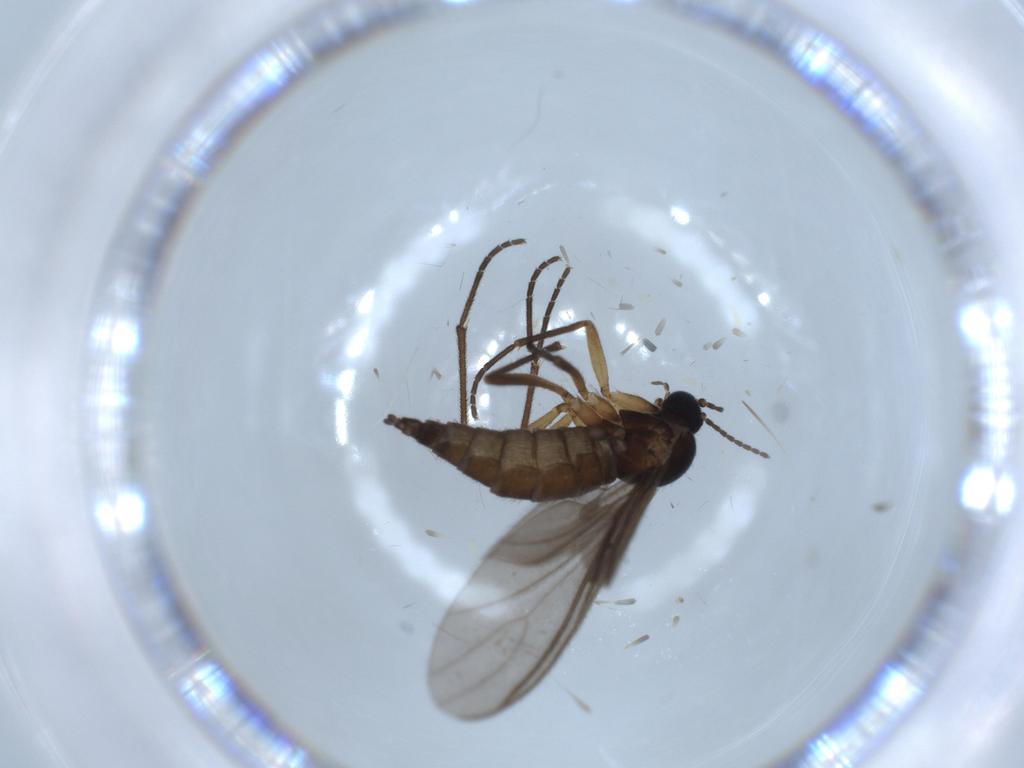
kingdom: Animalia
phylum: Arthropoda
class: Insecta
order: Diptera
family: Sciaridae
